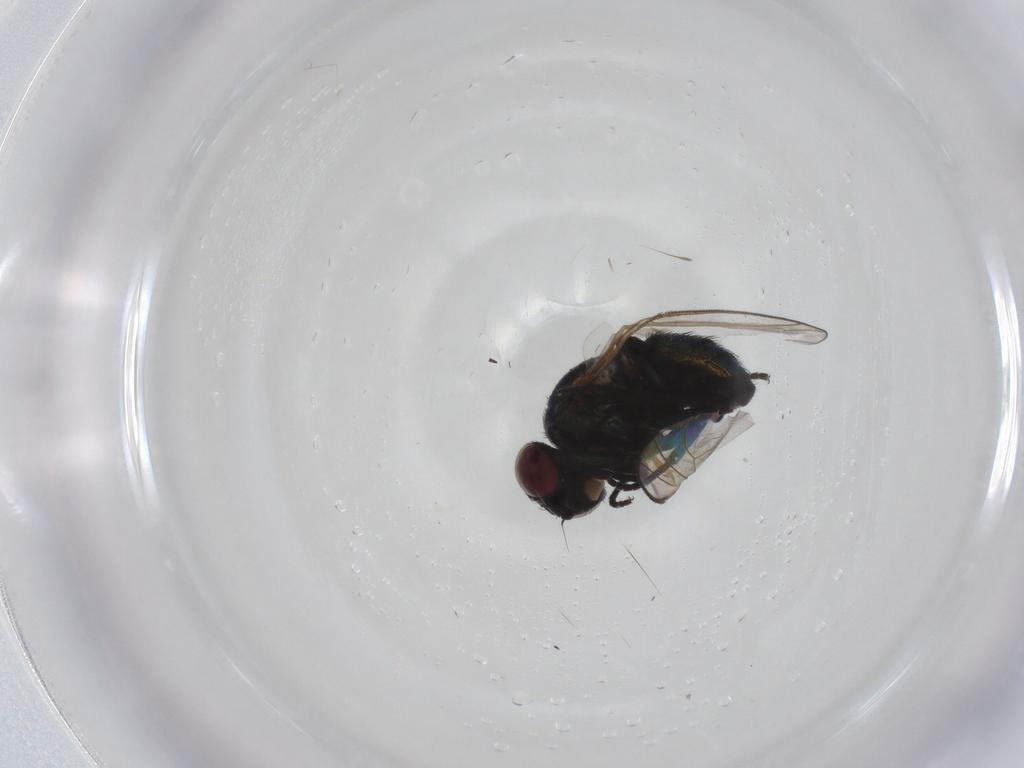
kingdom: Animalia
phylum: Arthropoda
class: Insecta
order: Diptera
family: Agromyzidae
